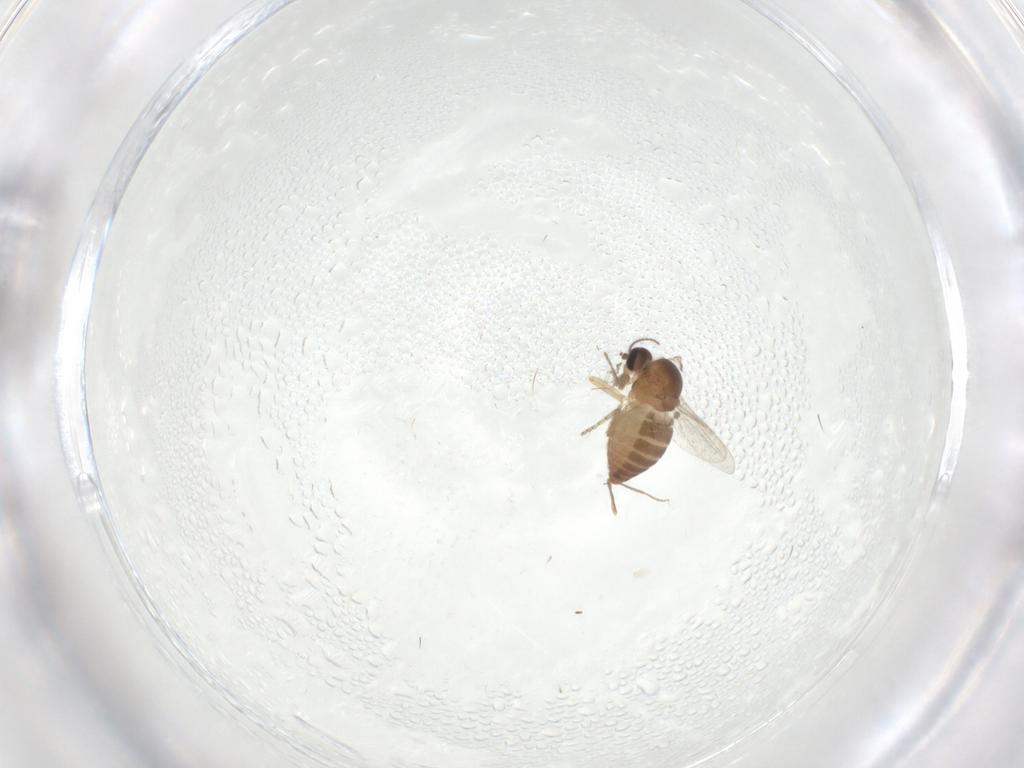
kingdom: Animalia
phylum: Arthropoda
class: Insecta
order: Diptera
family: Ceratopogonidae
